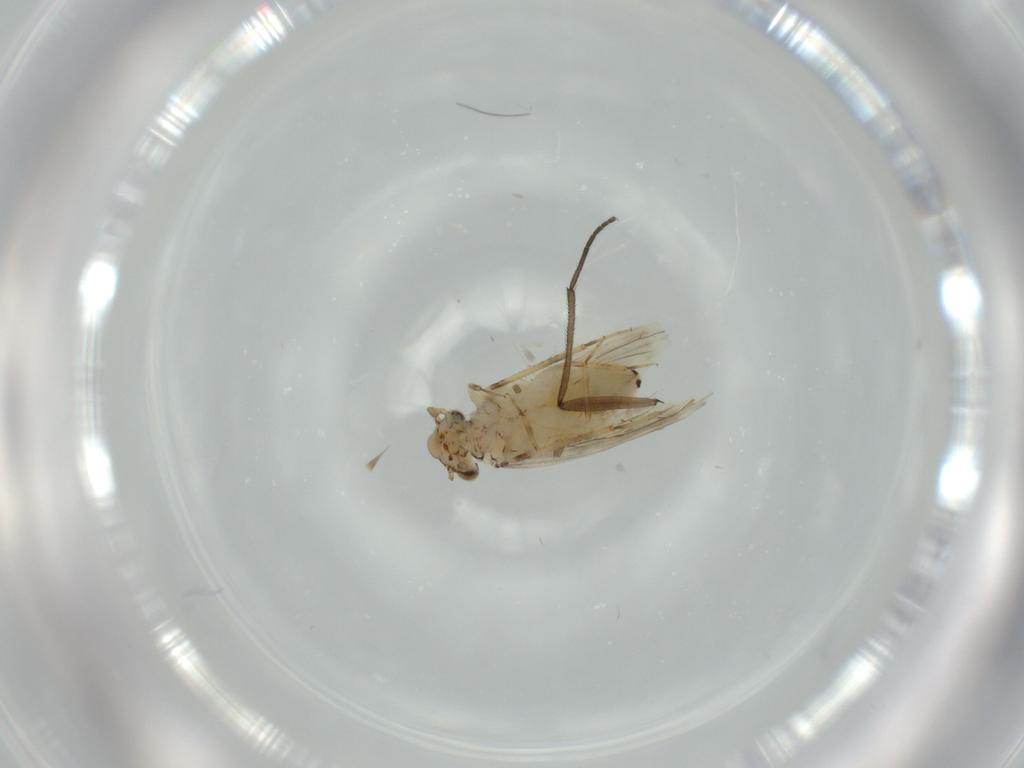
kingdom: Animalia
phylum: Arthropoda
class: Insecta
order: Psocodea
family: Lepidopsocidae
